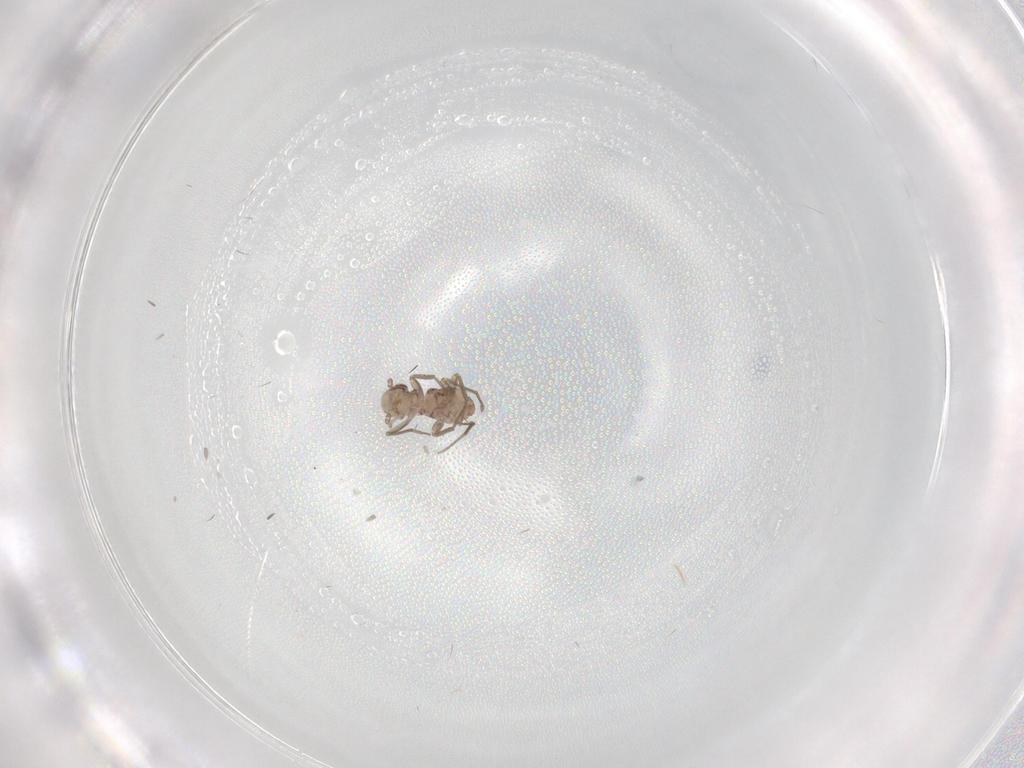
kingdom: Animalia
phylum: Arthropoda
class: Insecta
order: Psocodea
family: Mesopsocidae
